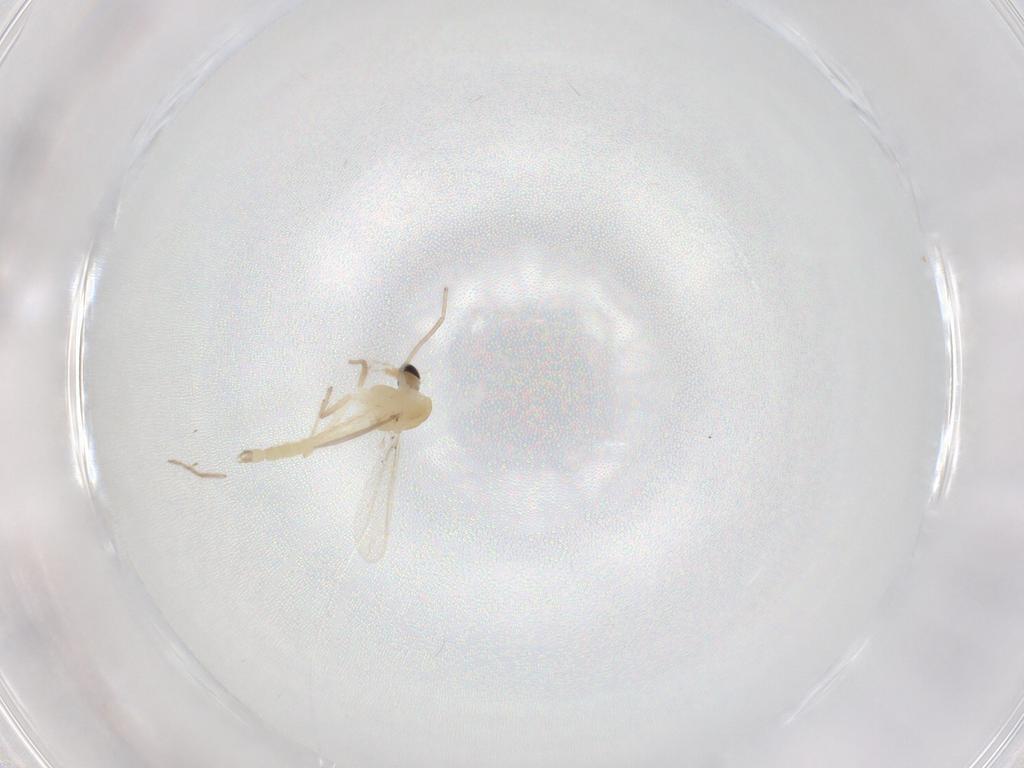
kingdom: Animalia
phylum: Arthropoda
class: Insecta
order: Diptera
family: Chironomidae
